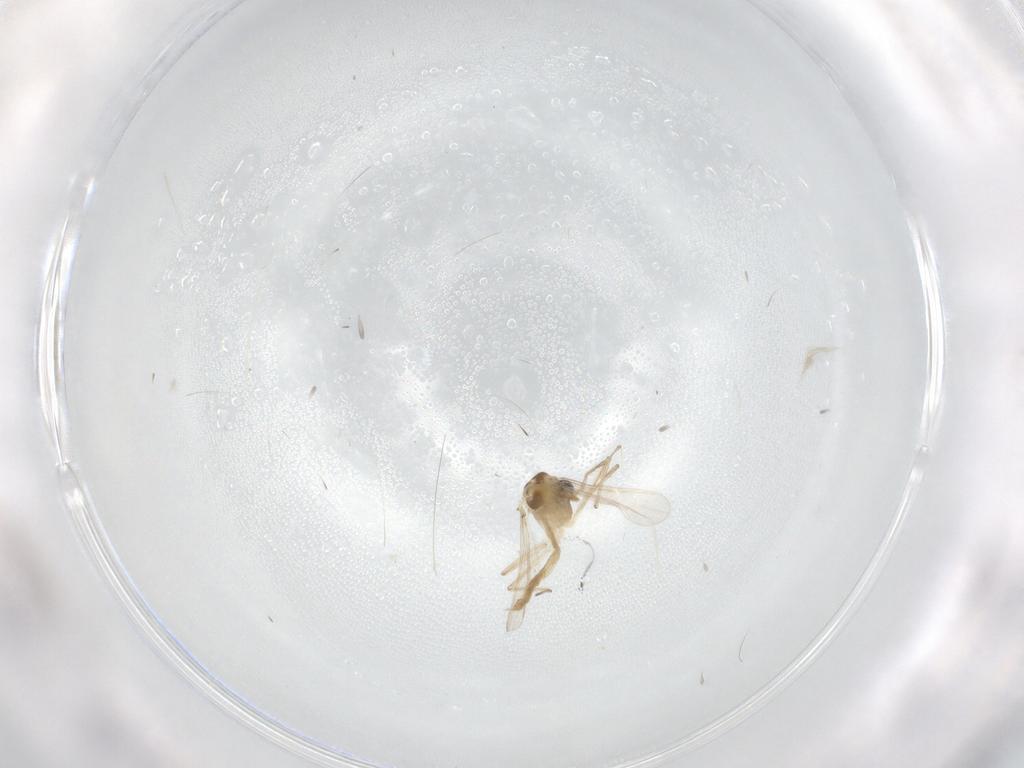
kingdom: Animalia
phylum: Arthropoda
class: Insecta
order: Diptera
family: Chironomidae
